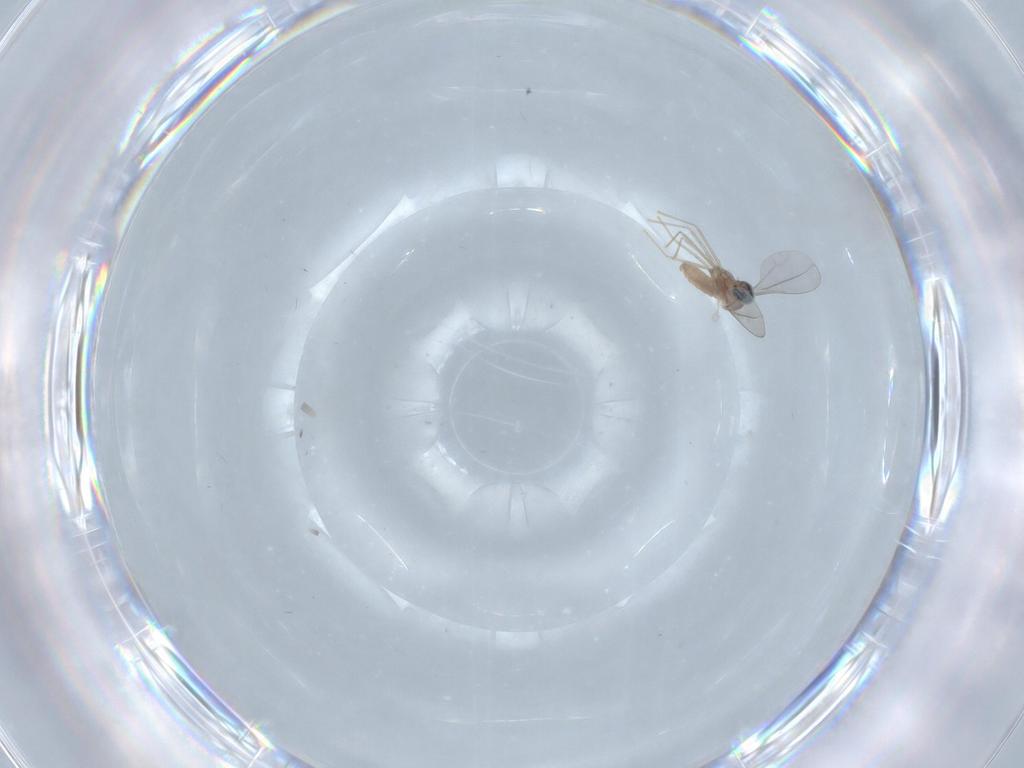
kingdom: Animalia
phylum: Arthropoda
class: Insecta
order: Diptera
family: Cecidomyiidae
